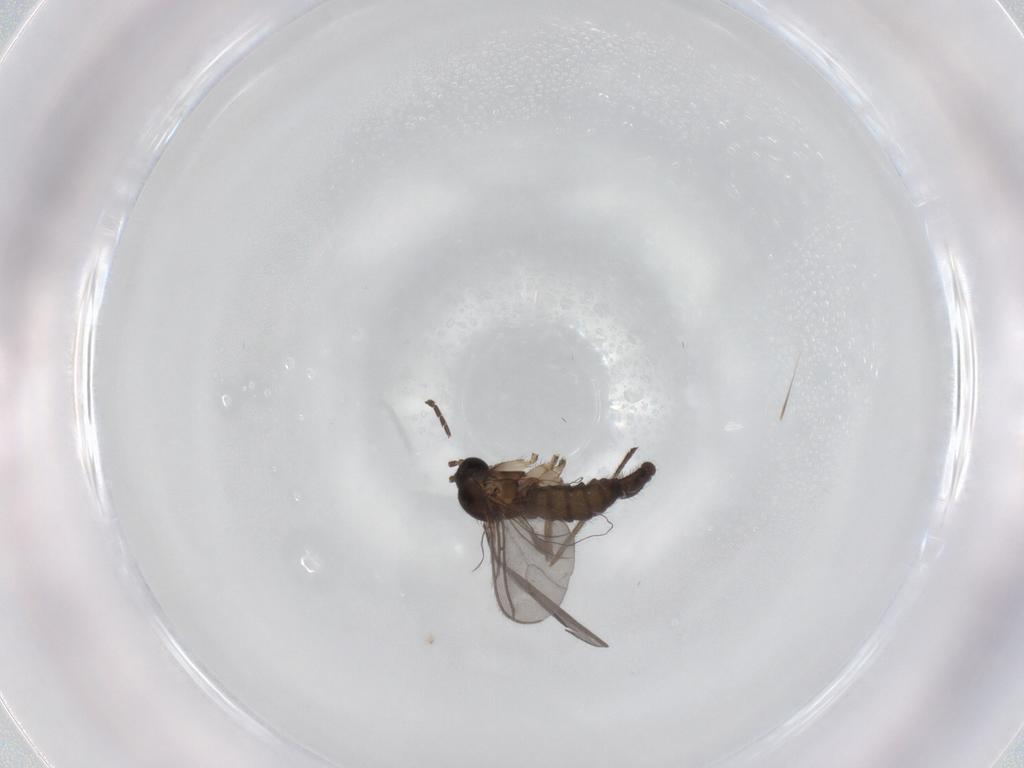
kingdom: Animalia
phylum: Arthropoda
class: Insecta
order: Diptera
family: Sciaridae
